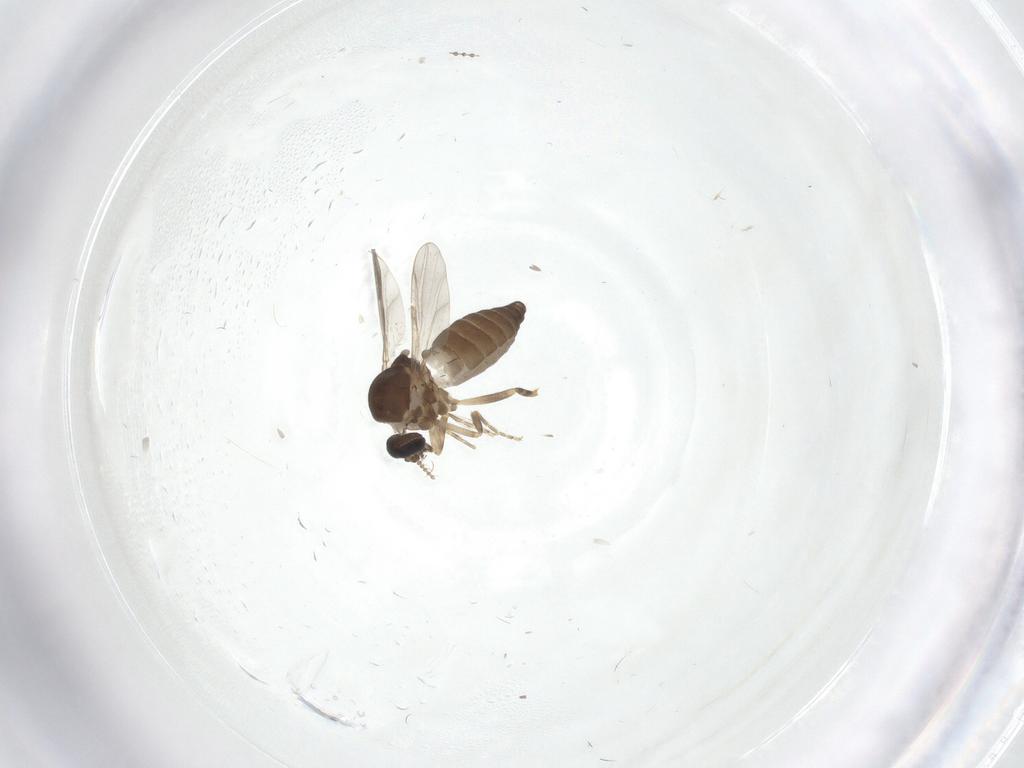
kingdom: Animalia
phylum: Arthropoda
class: Insecta
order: Diptera
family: Ceratopogonidae
